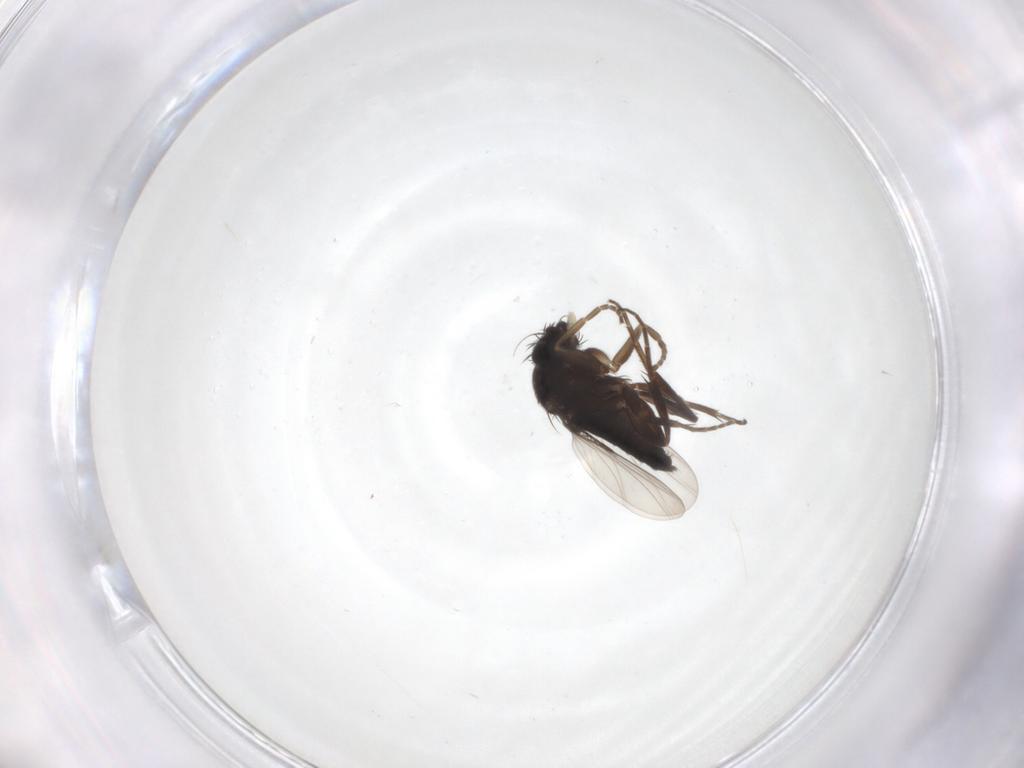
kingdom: Animalia
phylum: Arthropoda
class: Insecta
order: Diptera
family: Phoridae
